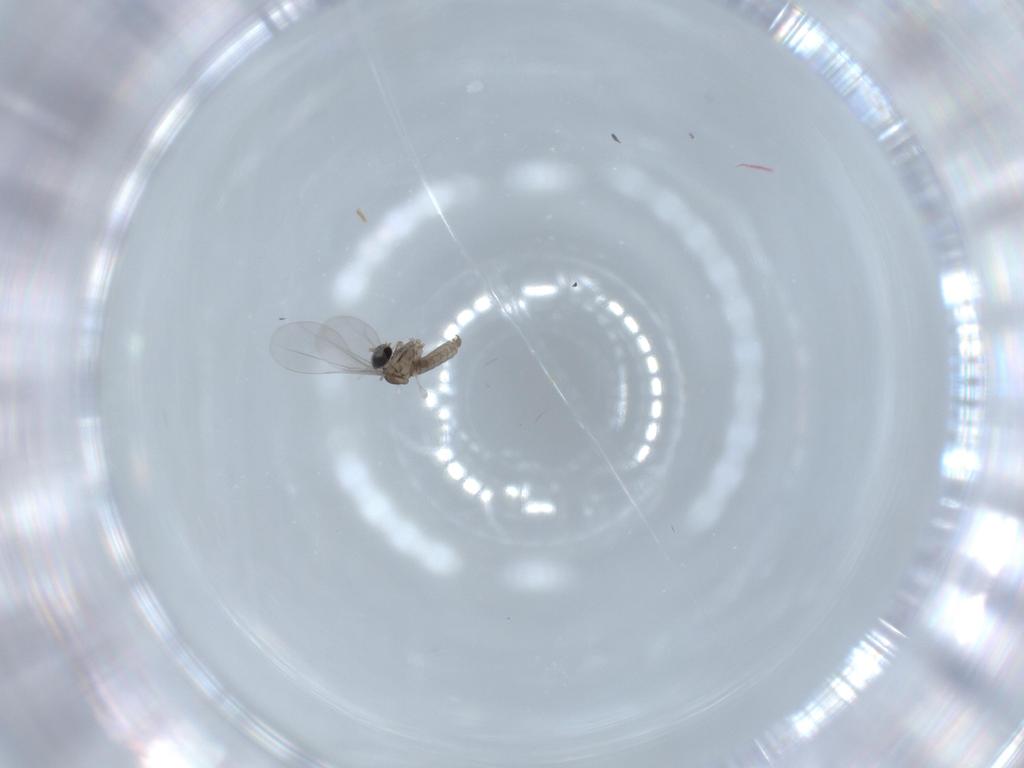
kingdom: Animalia
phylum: Arthropoda
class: Insecta
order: Diptera
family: Cecidomyiidae
